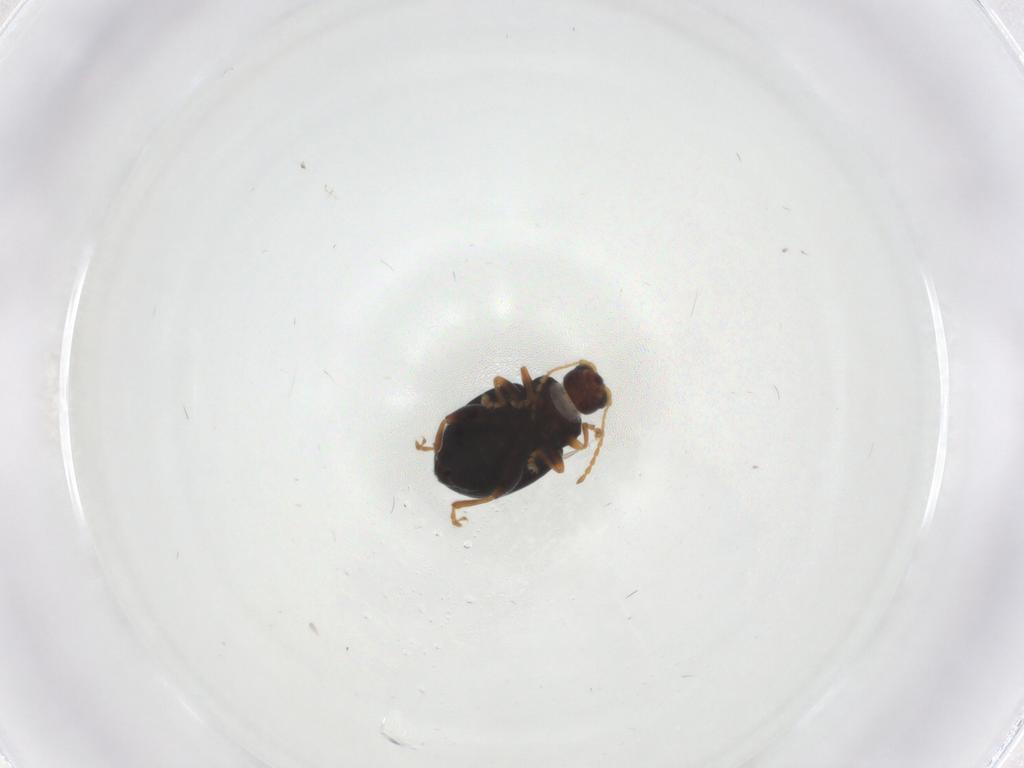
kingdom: Animalia
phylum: Arthropoda
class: Insecta
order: Coleoptera
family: Chrysomelidae
